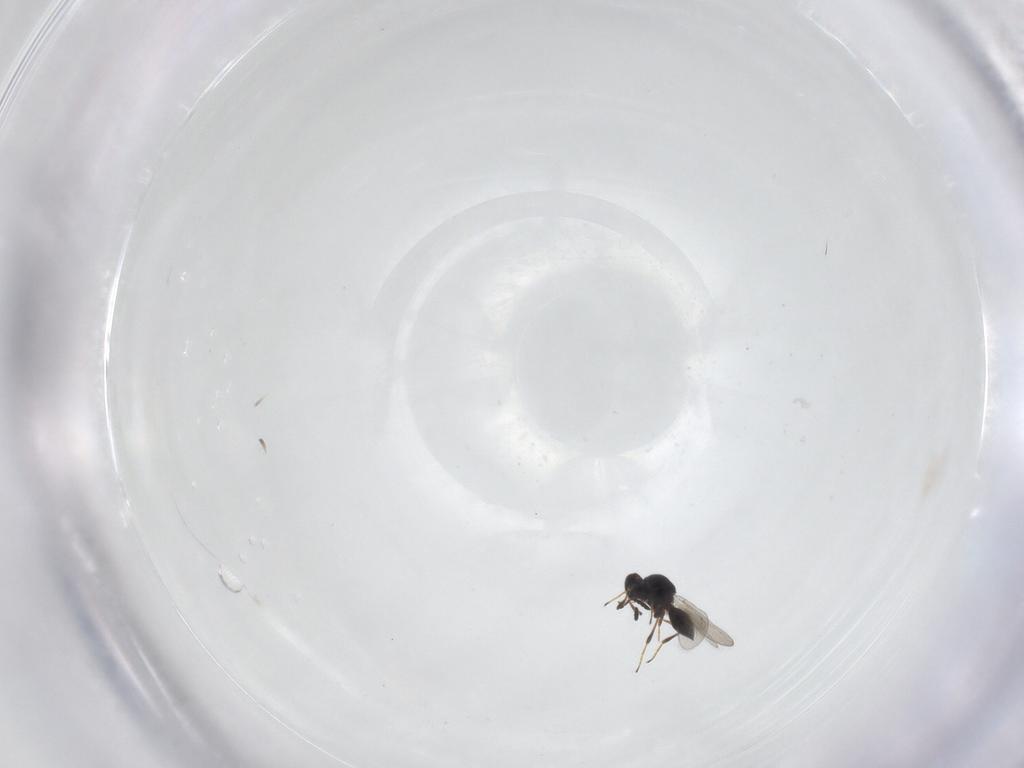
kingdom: Animalia
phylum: Arthropoda
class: Insecta
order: Hymenoptera
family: Platygastridae
